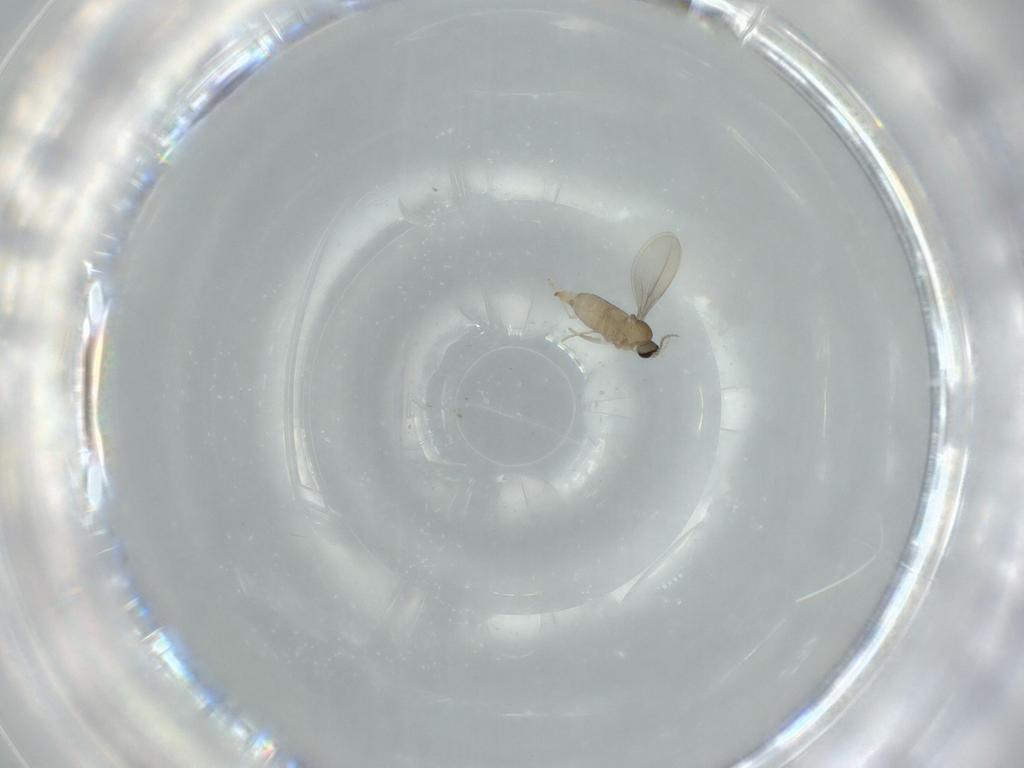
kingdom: Animalia
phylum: Arthropoda
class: Insecta
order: Diptera
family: Cecidomyiidae
